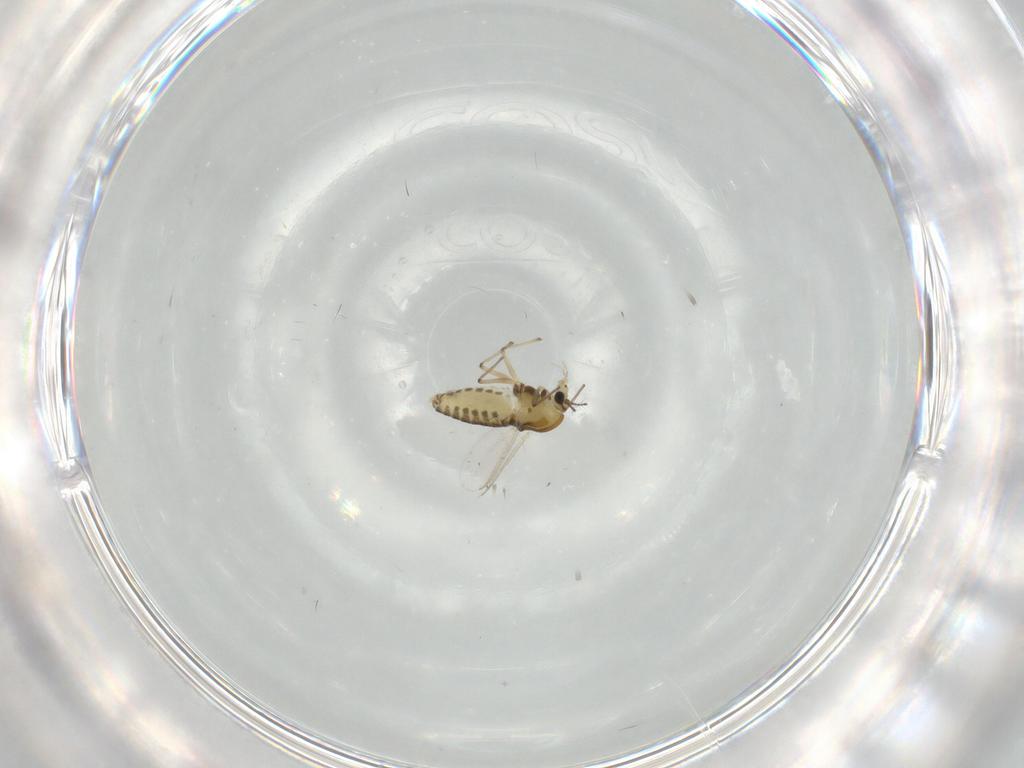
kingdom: Animalia
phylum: Arthropoda
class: Insecta
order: Diptera
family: Chironomidae
